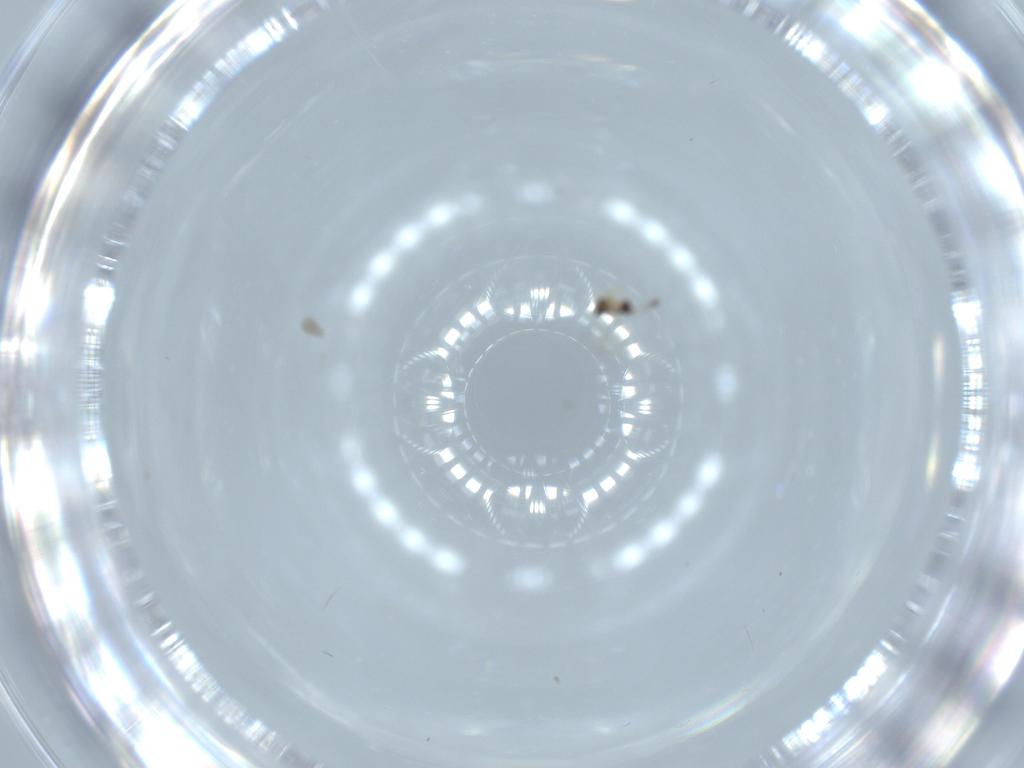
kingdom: Animalia
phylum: Arthropoda
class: Insecta
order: Hymenoptera
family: Mymaridae
